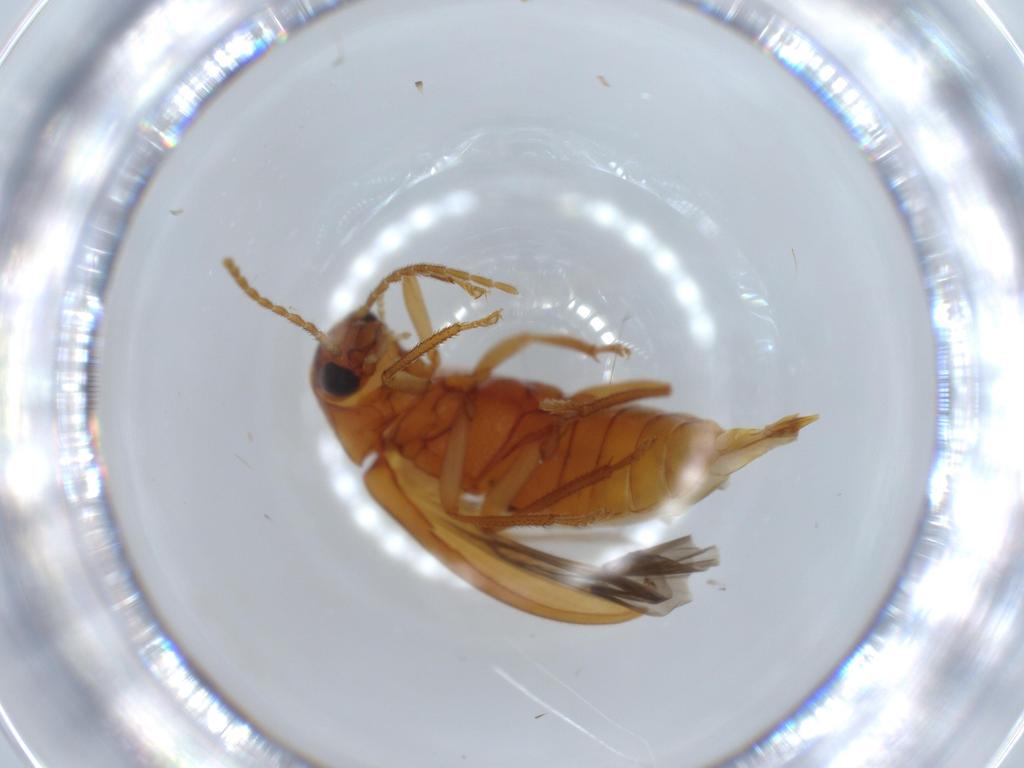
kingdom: Animalia
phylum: Arthropoda
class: Insecta
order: Coleoptera
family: Ptilodactylidae
